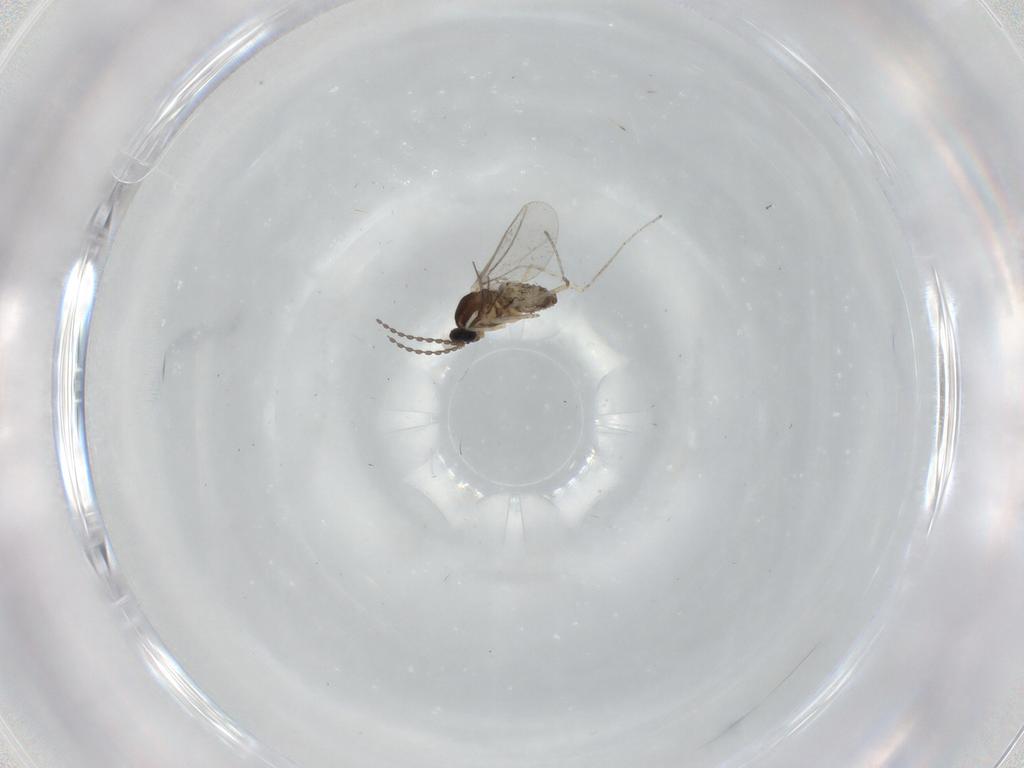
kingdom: Animalia
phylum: Arthropoda
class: Insecta
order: Diptera
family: Cecidomyiidae
